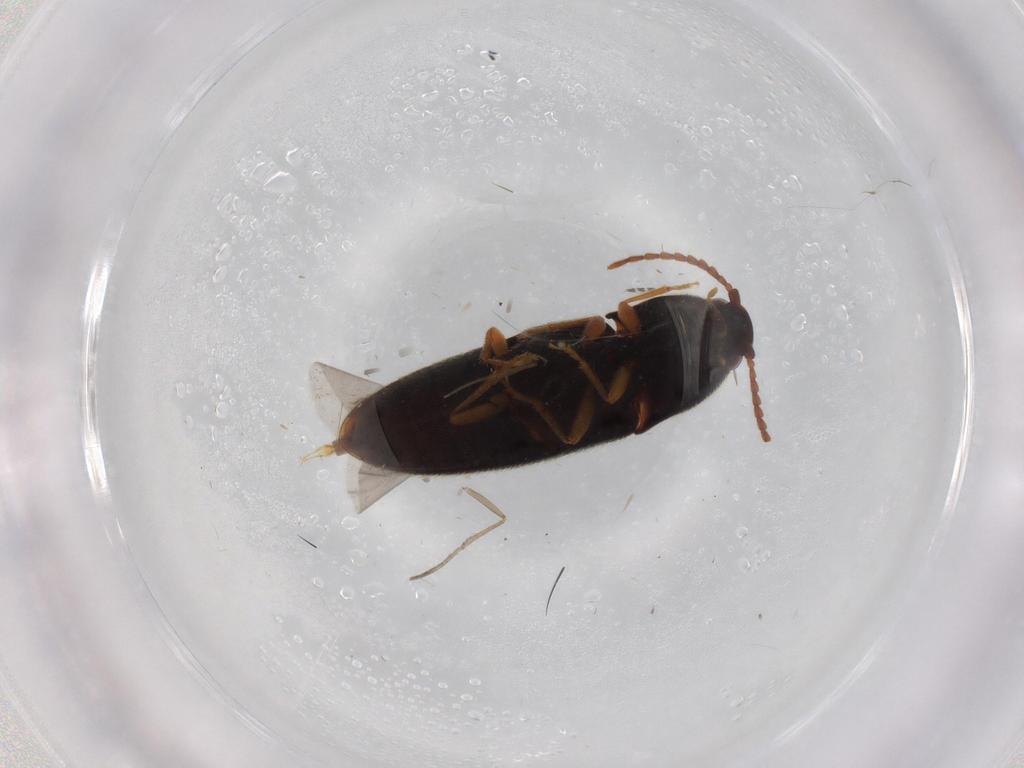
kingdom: Animalia
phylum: Arthropoda
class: Insecta
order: Coleoptera
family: Elateridae
